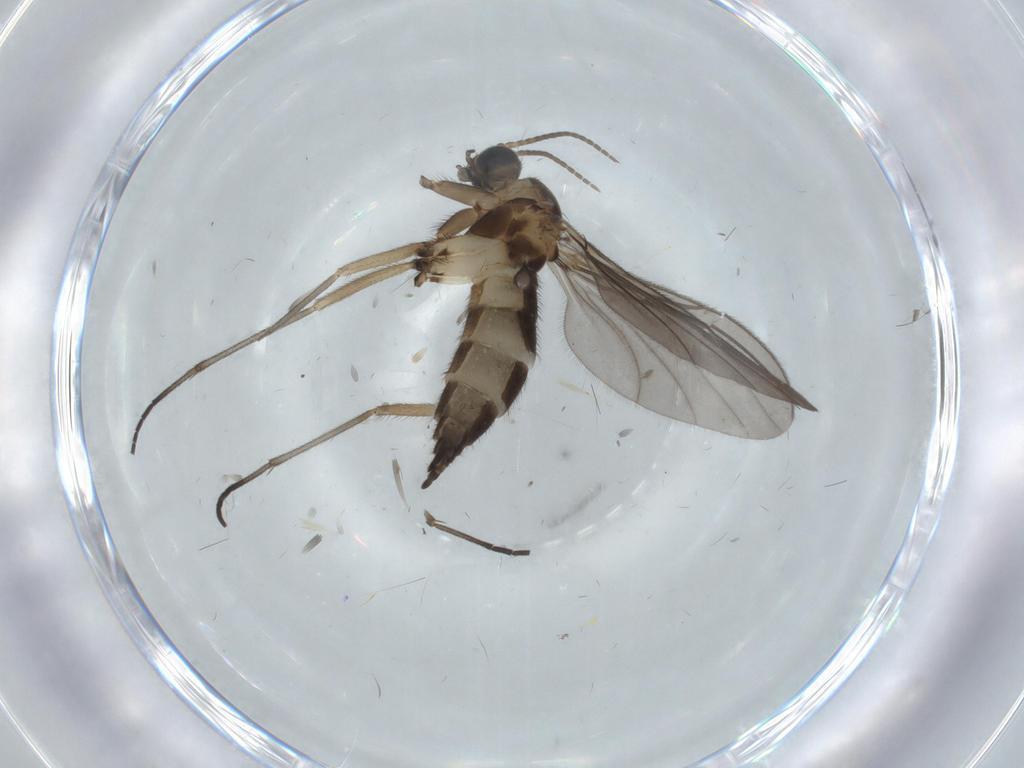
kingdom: Animalia
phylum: Arthropoda
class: Insecta
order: Diptera
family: Sciaridae
